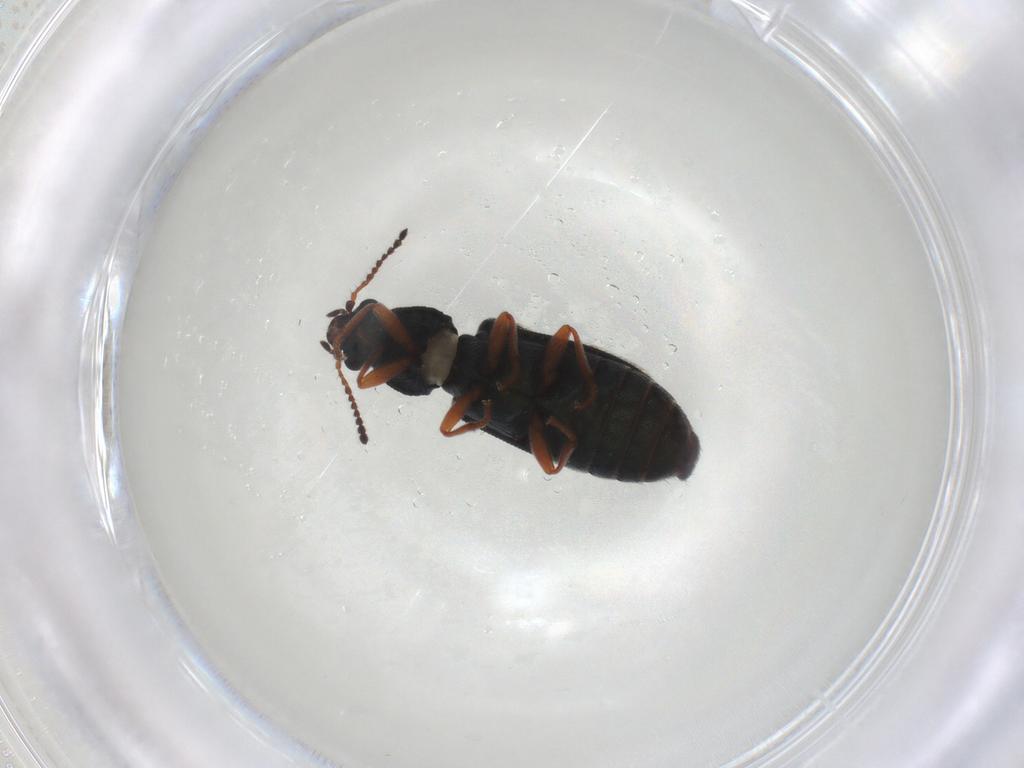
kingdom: Animalia
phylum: Arthropoda
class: Insecta
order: Coleoptera
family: Melyridae
